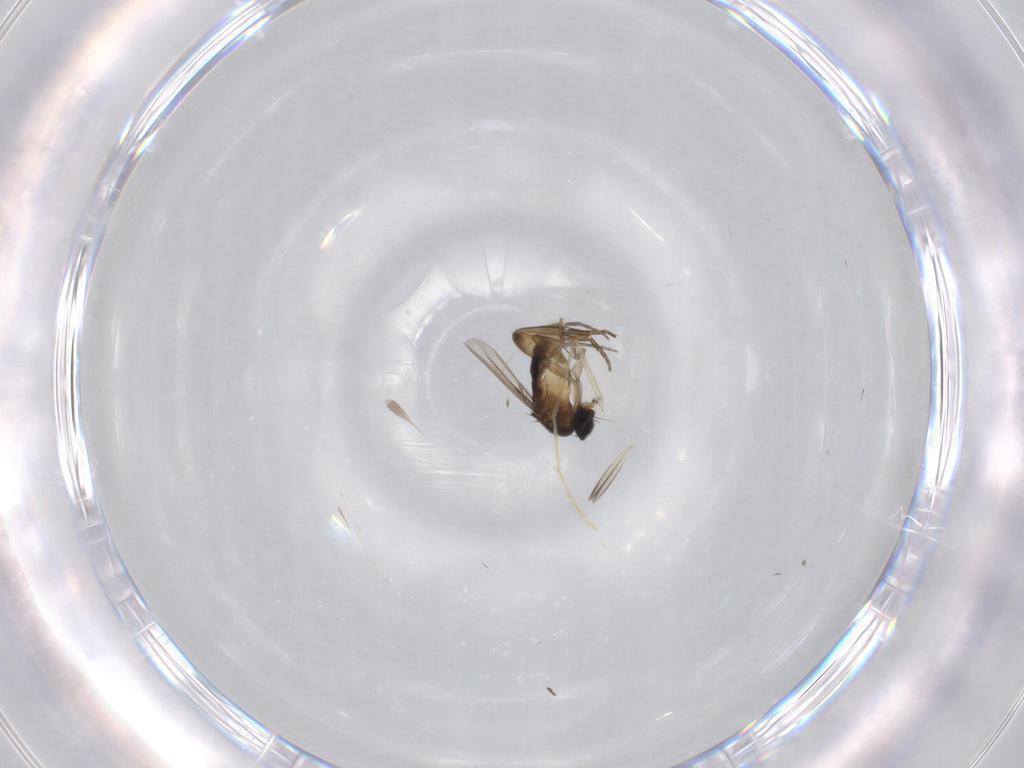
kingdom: Animalia
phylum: Arthropoda
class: Insecta
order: Diptera
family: Phoridae
